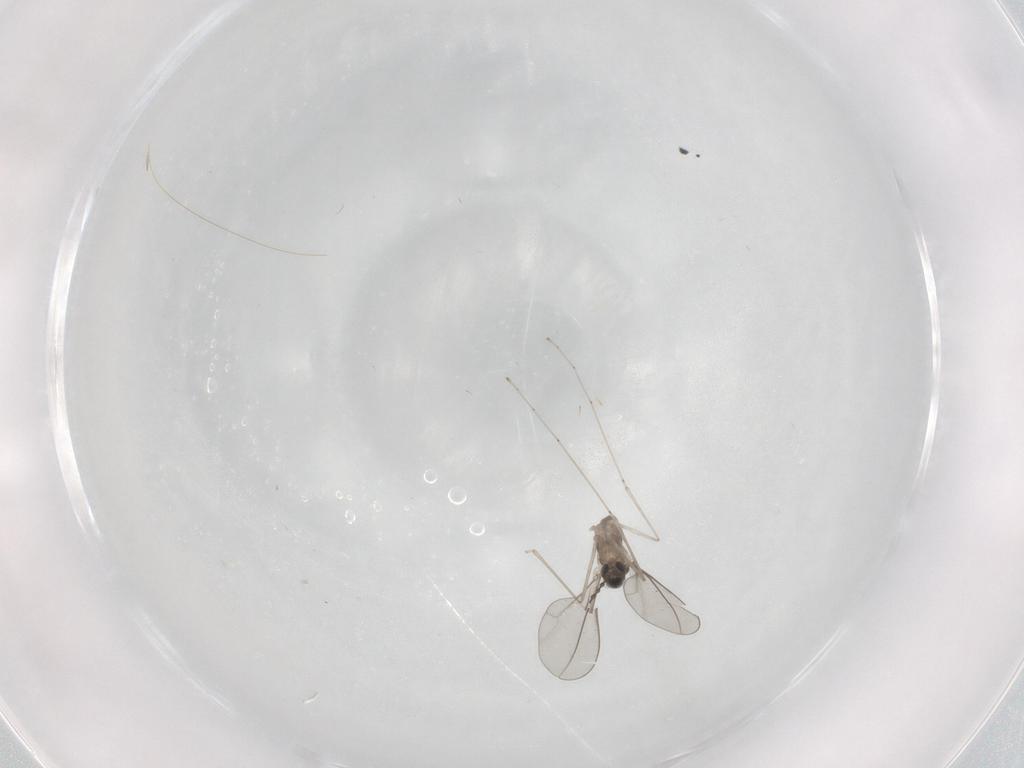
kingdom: Animalia
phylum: Arthropoda
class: Insecta
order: Diptera
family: Cecidomyiidae
